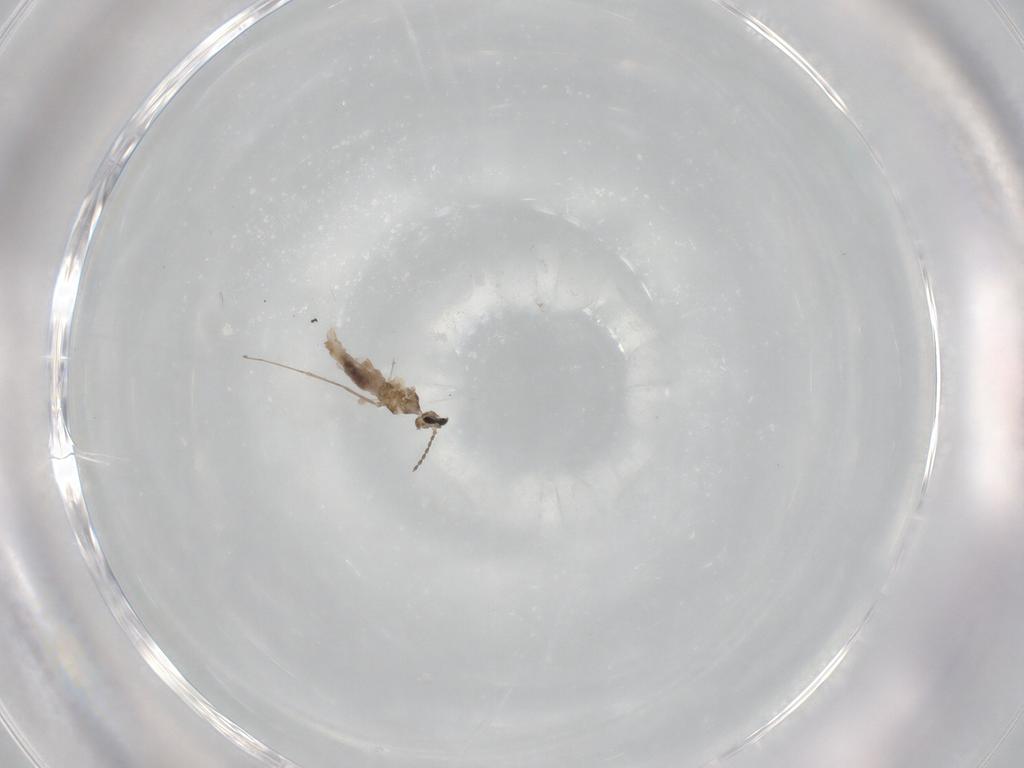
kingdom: Animalia
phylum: Arthropoda
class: Insecta
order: Diptera
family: Cecidomyiidae
